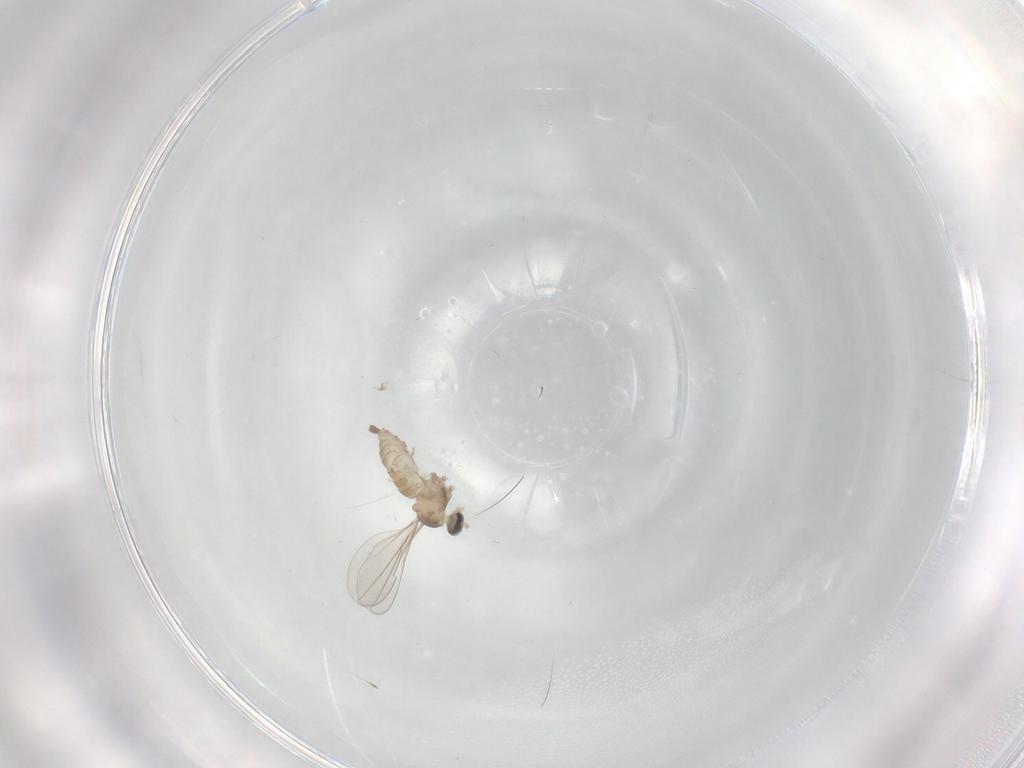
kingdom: Animalia
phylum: Arthropoda
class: Insecta
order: Diptera
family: Cecidomyiidae
